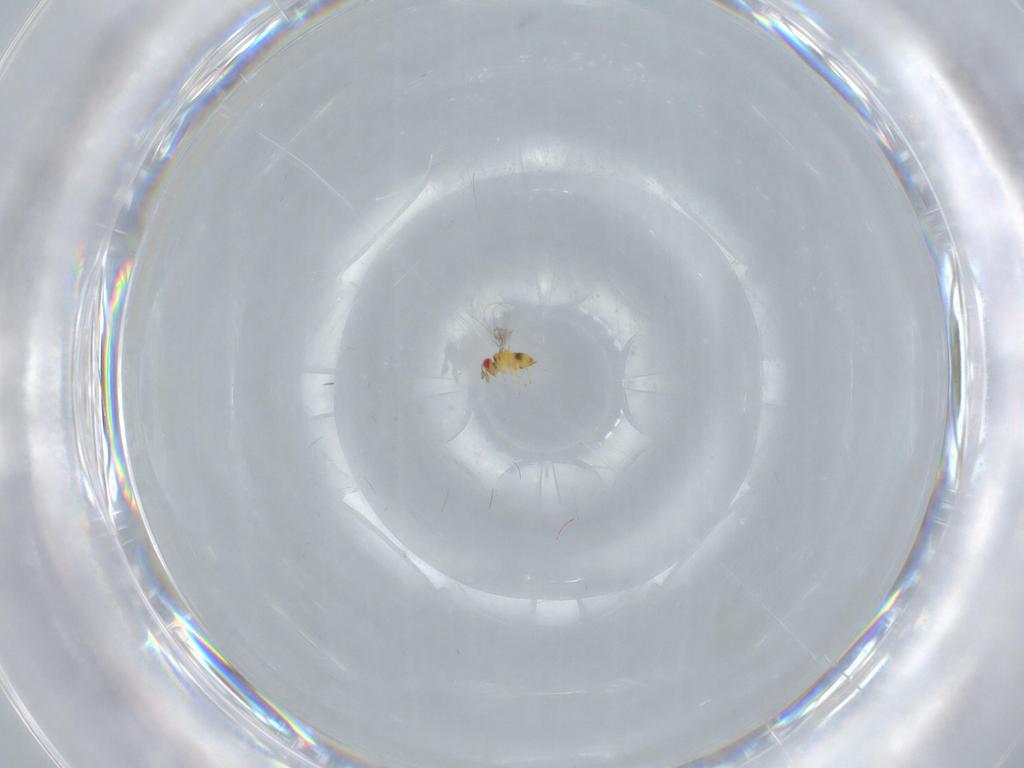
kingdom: Animalia
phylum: Arthropoda
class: Insecta
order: Hymenoptera
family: Trichogrammatidae
